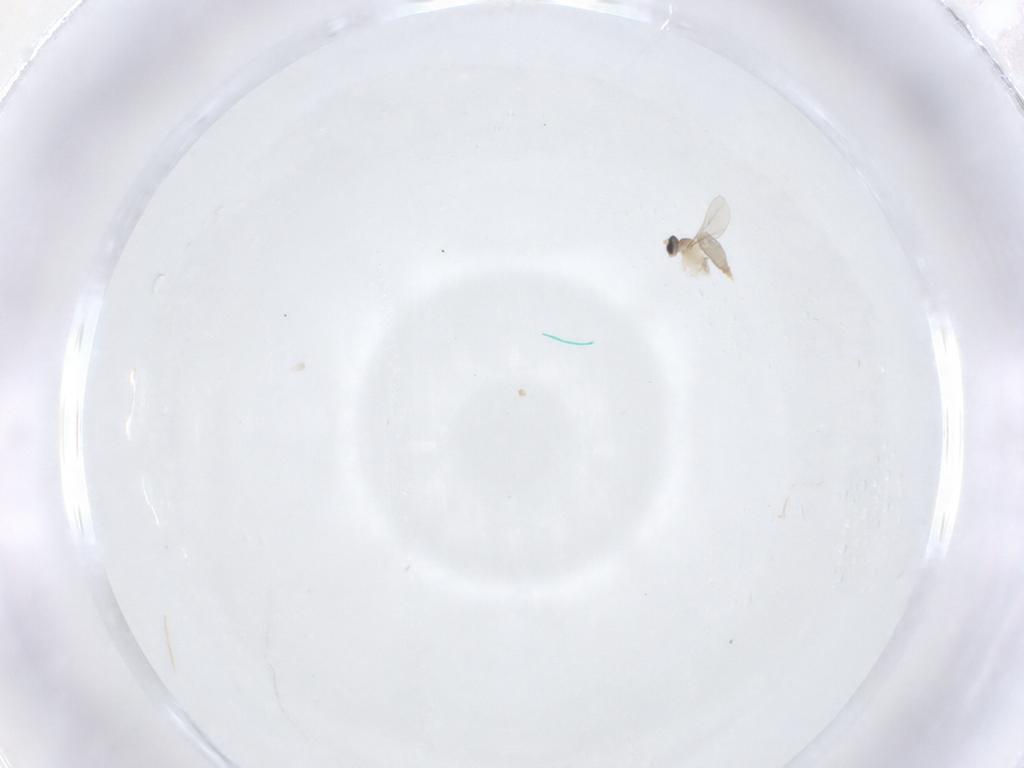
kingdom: Animalia
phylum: Arthropoda
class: Insecta
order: Diptera
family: Cecidomyiidae
